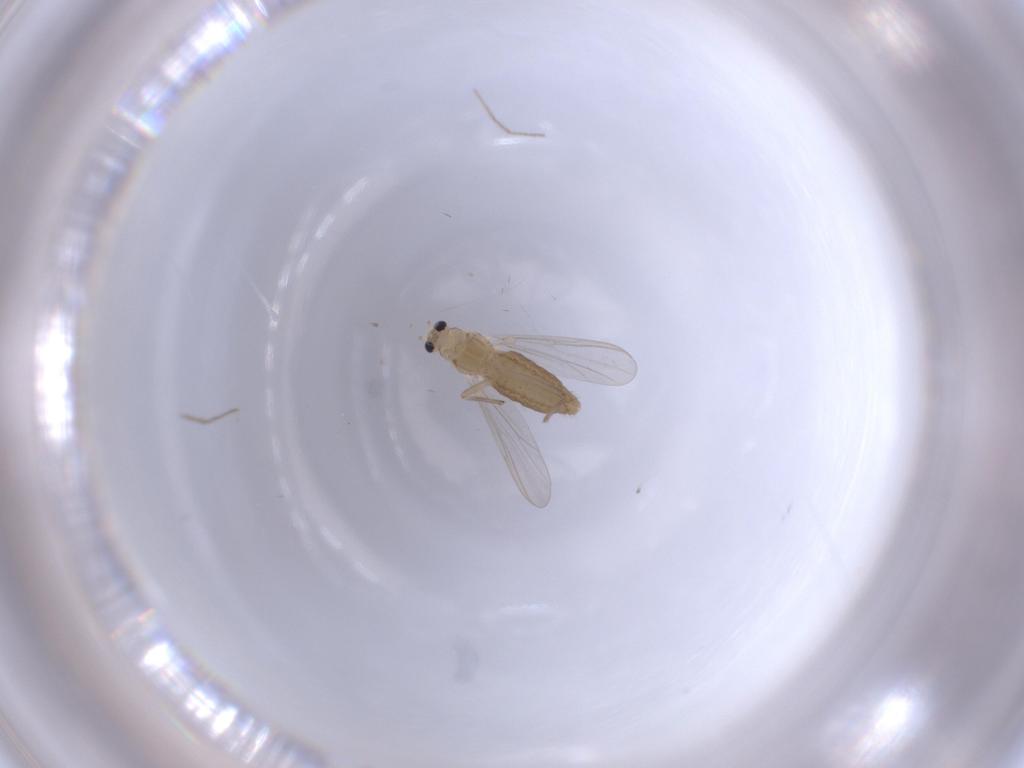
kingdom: Animalia
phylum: Arthropoda
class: Insecta
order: Diptera
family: Chironomidae
